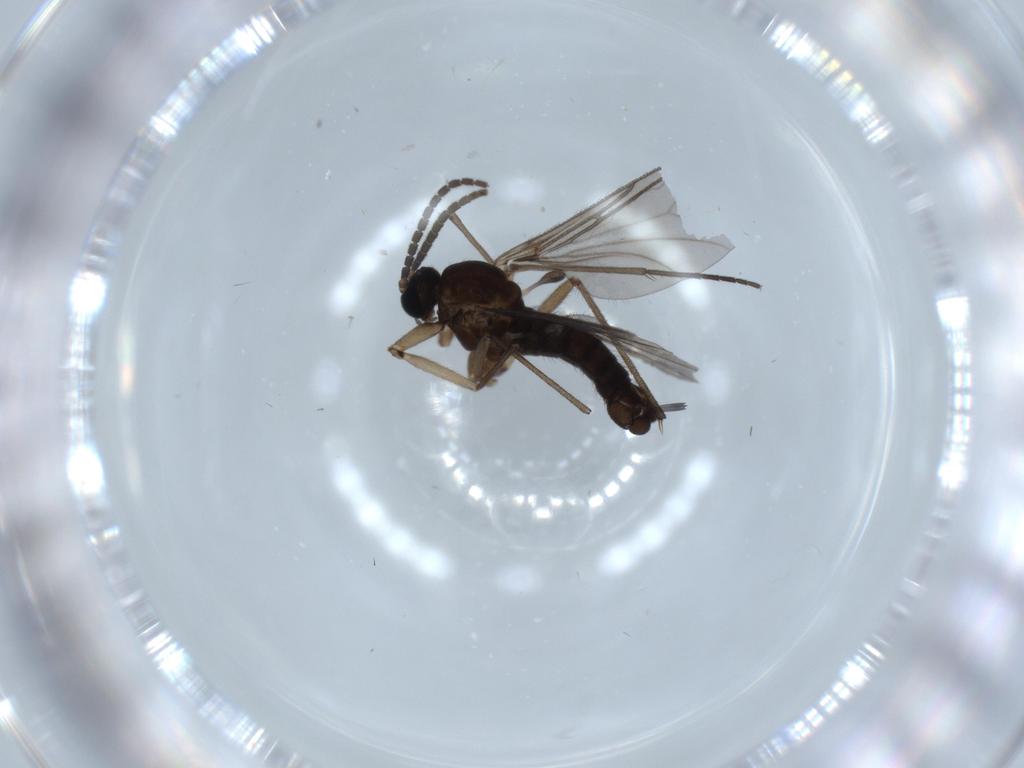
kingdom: Animalia
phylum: Arthropoda
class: Insecta
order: Diptera
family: Sciaridae
